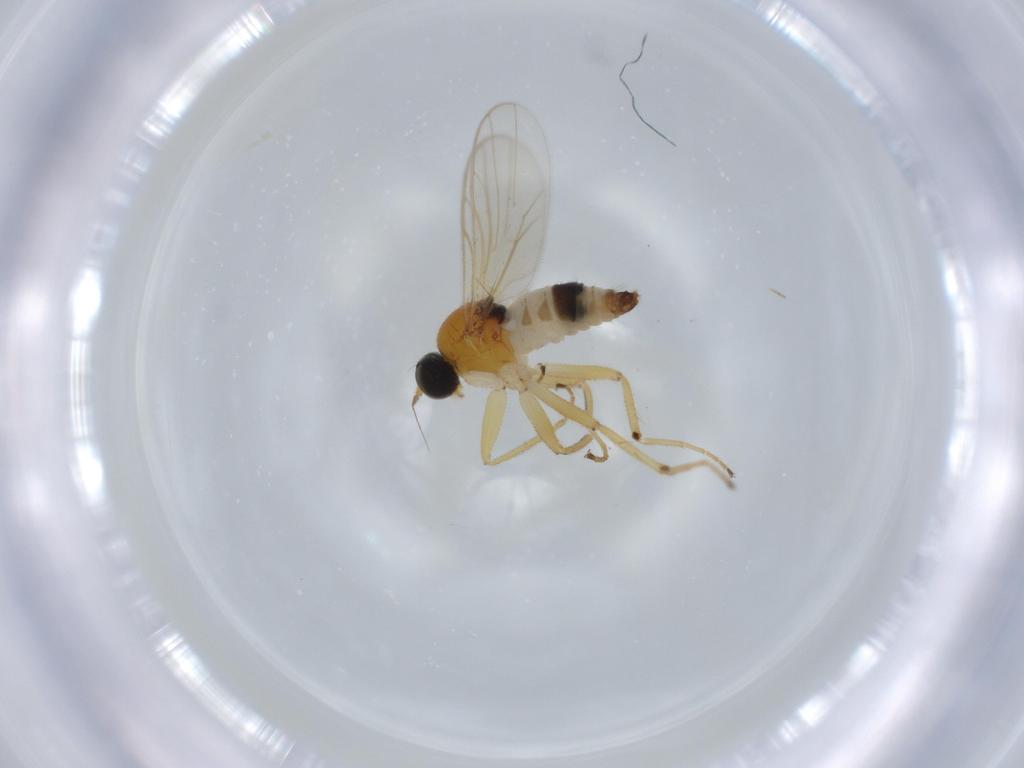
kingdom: Animalia
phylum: Arthropoda
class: Insecta
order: Diptera
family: Hybotidae
